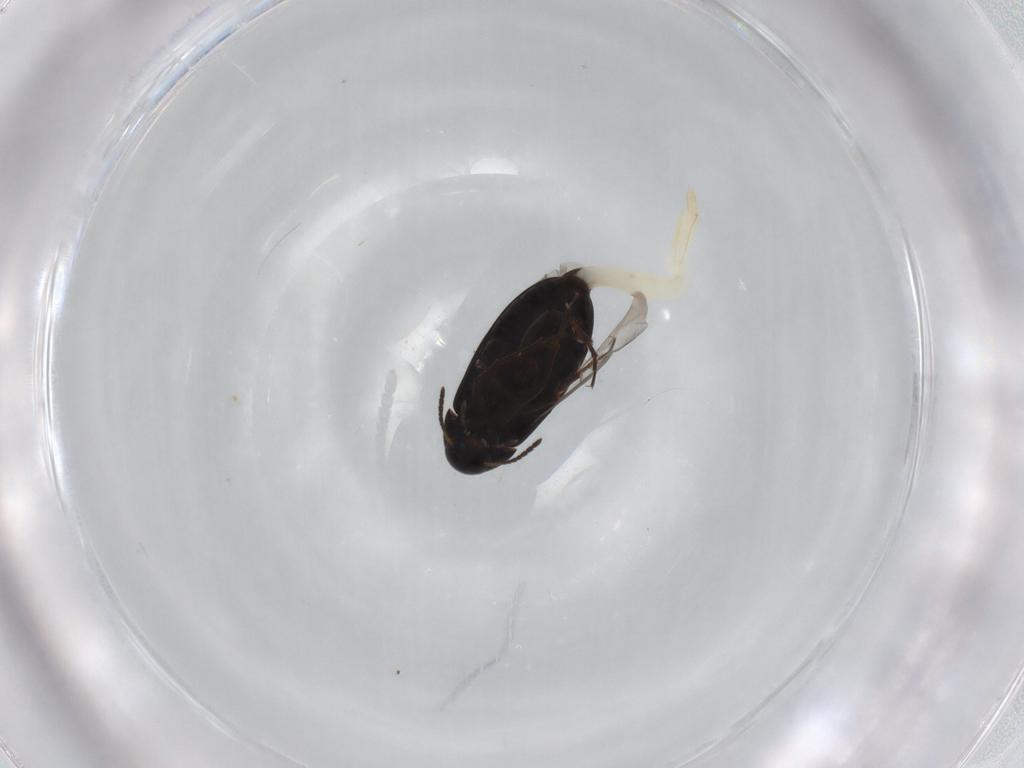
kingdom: Animalia
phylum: Arthropoda
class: Insecta
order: Coleoptera
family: Scraptiidae
